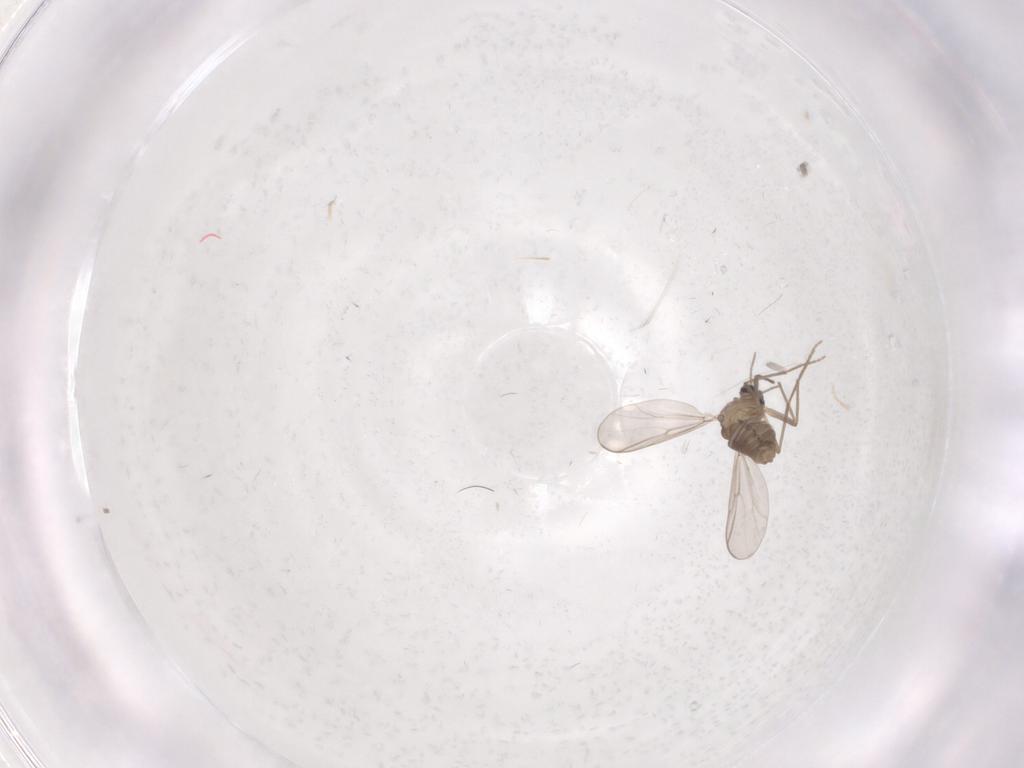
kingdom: Animalia
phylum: Arthropoda
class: Insecta
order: Diptera
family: Cecidomyiidae
